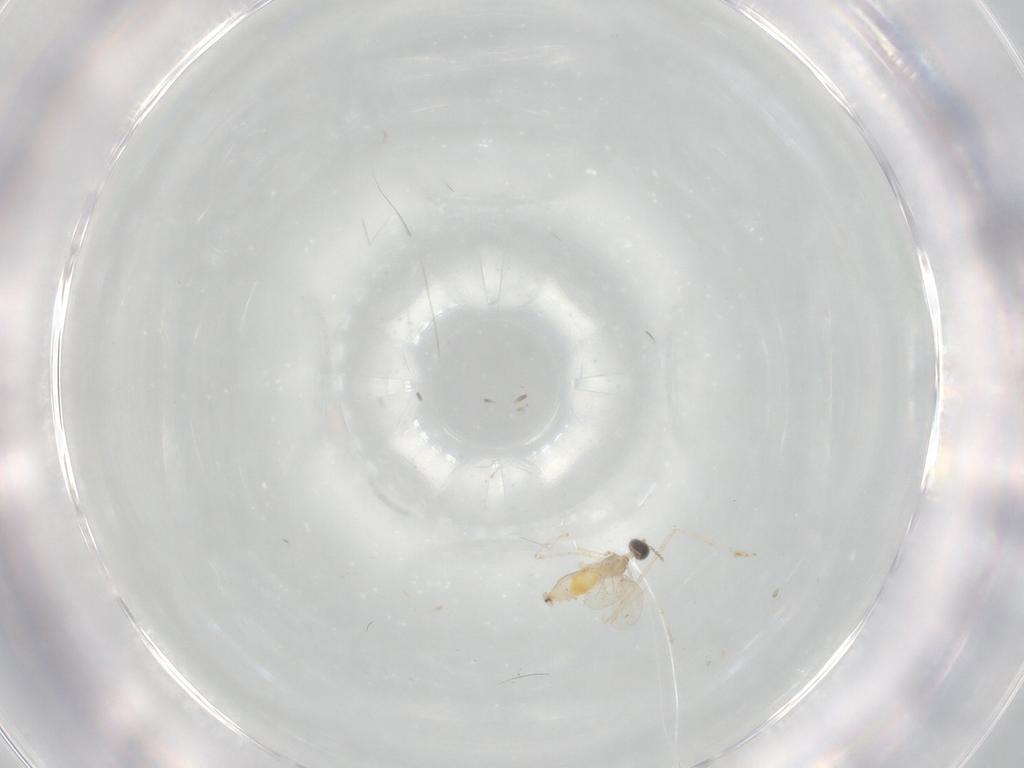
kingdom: Animalia
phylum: Arthropoda
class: Insecta
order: Diptera
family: Cecidomyiidae
